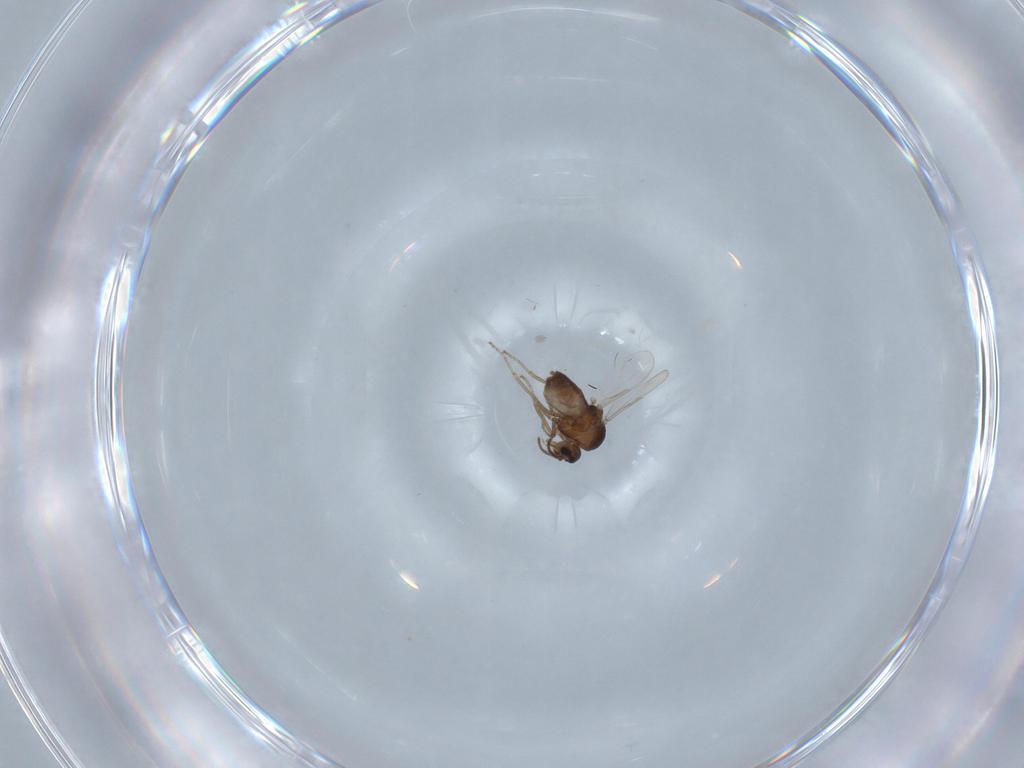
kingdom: Animalia
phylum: Arthropoda
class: Insecta
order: Diptera
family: Ceratopogonidae
